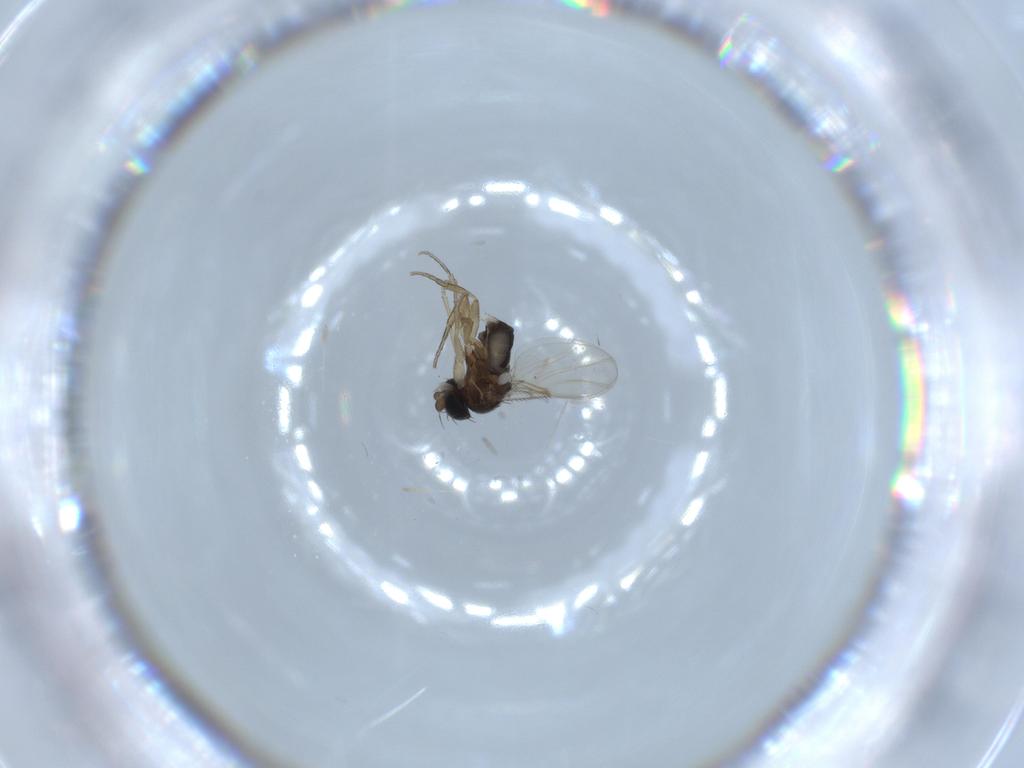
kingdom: Animalia
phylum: Arthropoda
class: Insecta
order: Diptera
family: Phoridae
